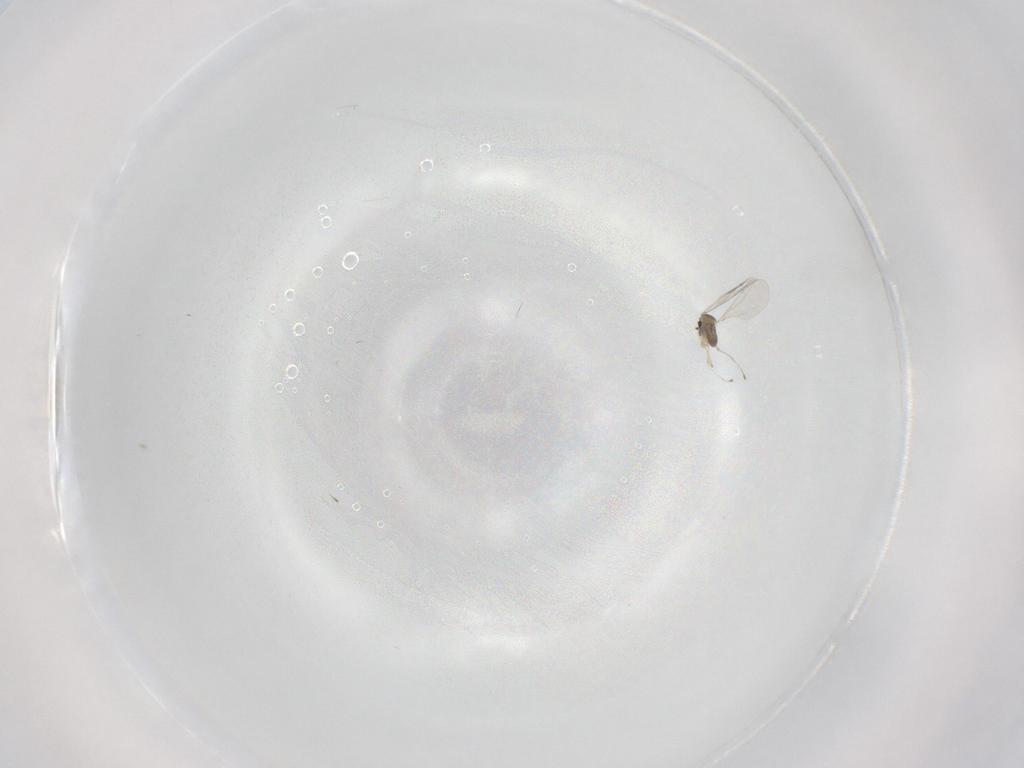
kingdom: Animalia
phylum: Arthropoda
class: Insecta
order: Diptera
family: Cecidomyiidae
